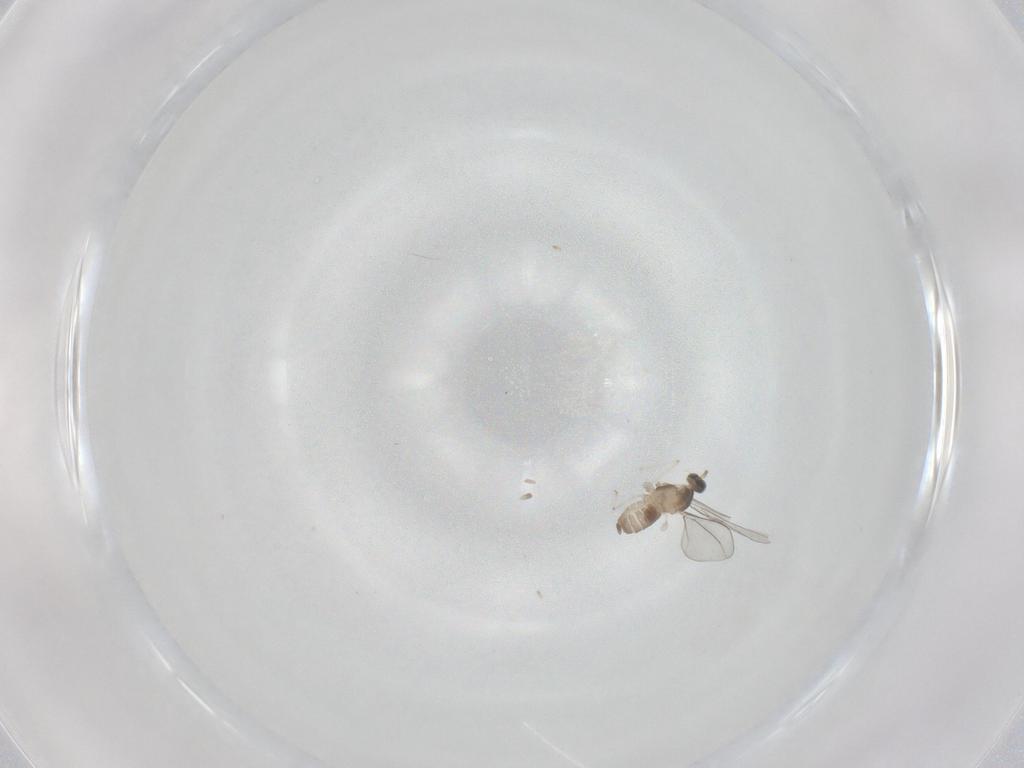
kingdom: Animalia
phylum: Arthropoda
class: Insecta
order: Diptera
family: Cecidomyiidae
